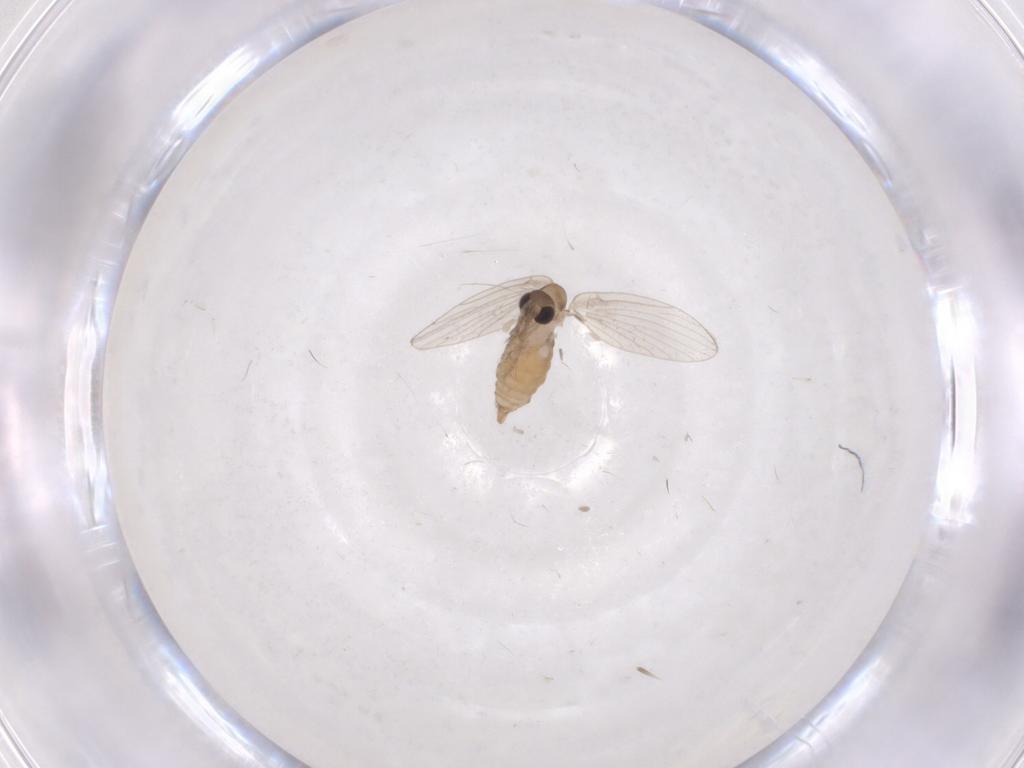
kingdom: Animalia
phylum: Arthropoda
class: Insecta
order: Diptera
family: Psychodidae
